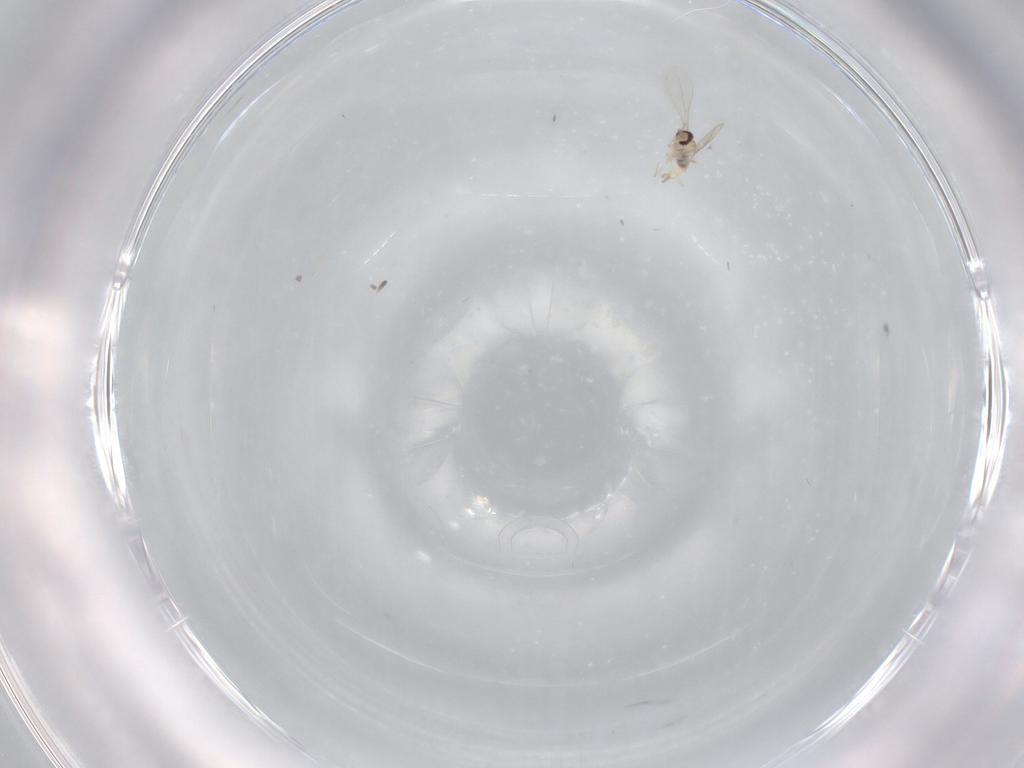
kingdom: Animalia
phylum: Arthropoda
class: Insecta
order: Diptera
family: Cecidomyiidae
